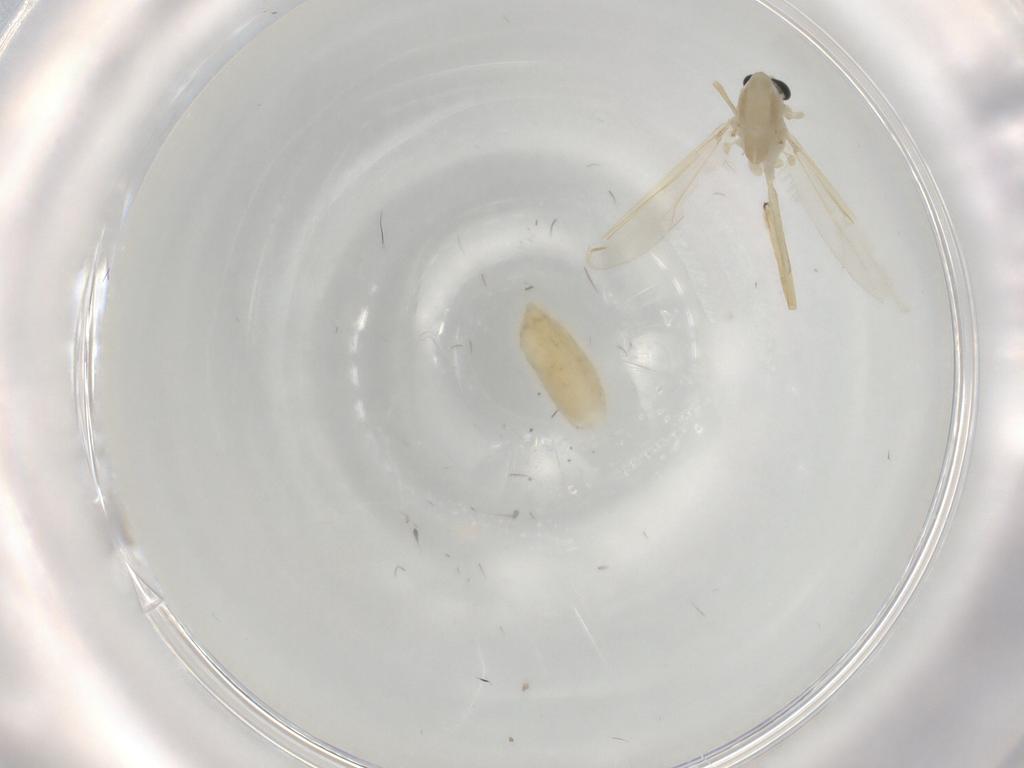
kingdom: Animalia
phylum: Arthropoda
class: Insecta
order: Diptera
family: Chironomidae
